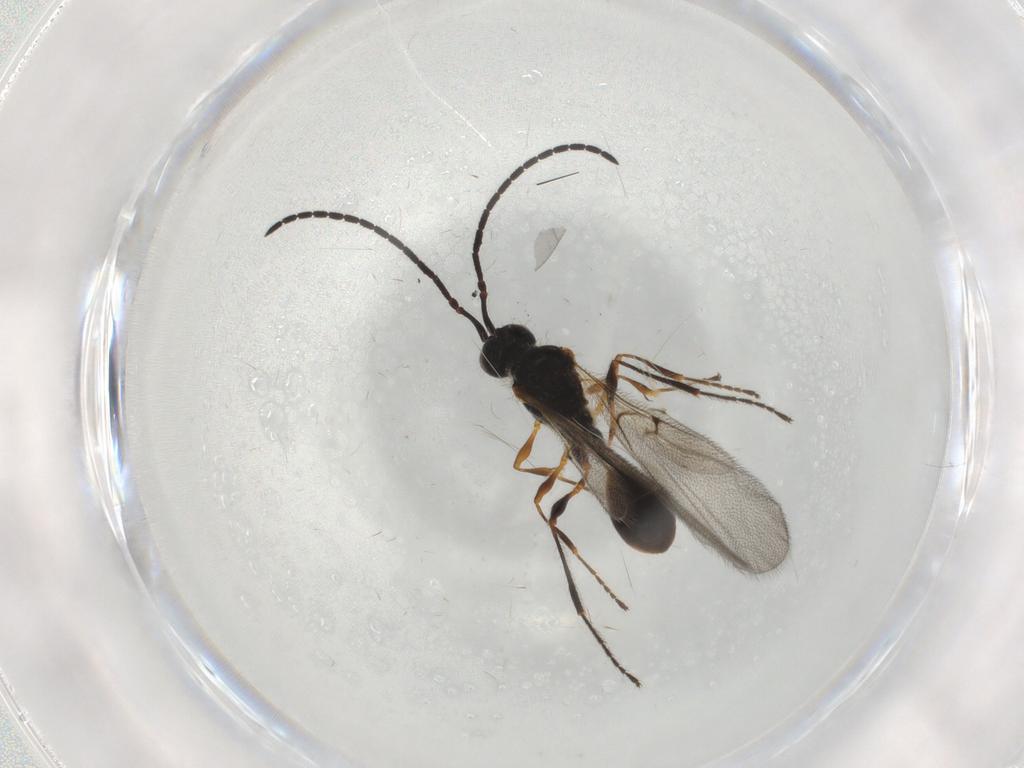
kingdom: Animalia
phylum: Arthropoda
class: Insecta
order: Hymenoptera
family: Diapriidae
